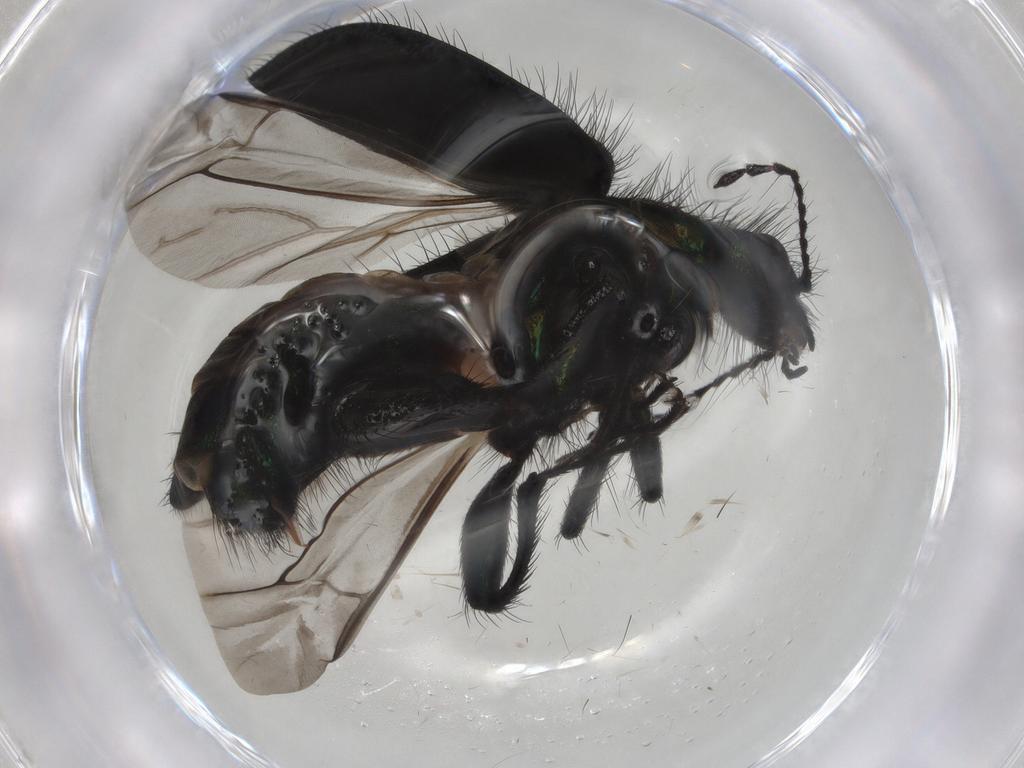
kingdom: Animalia
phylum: Arthropoda
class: Insecta
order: Coleoptera
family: Melyridae
